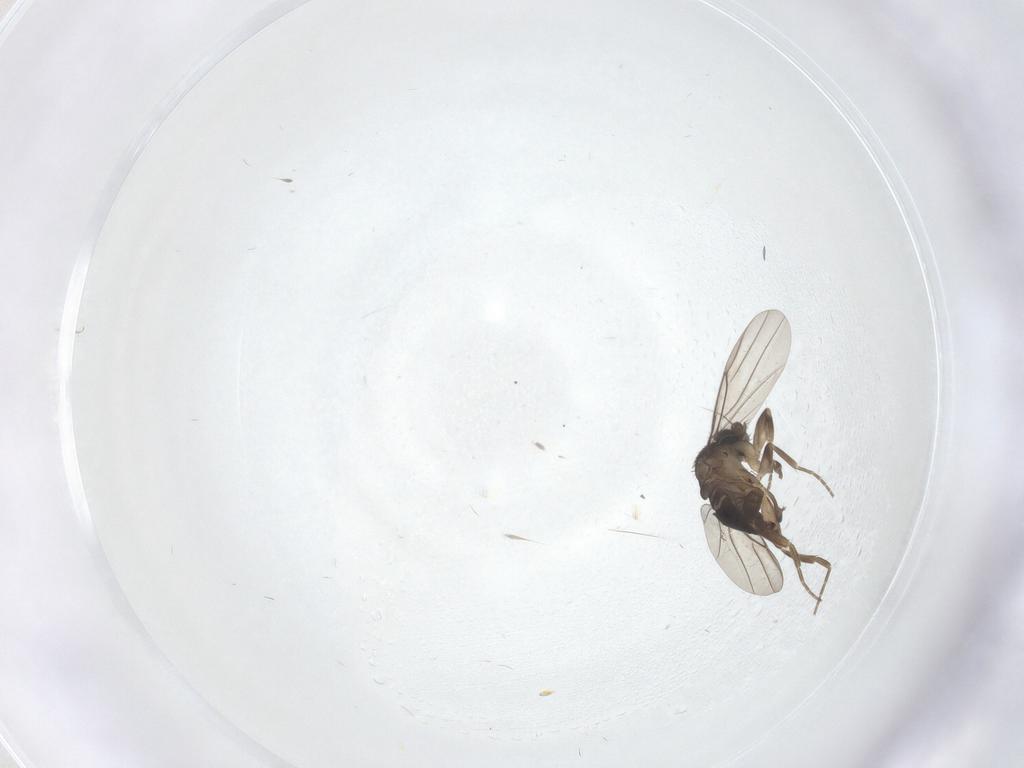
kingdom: Animalia
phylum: Arthropoda
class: Insecta
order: Diptera
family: Phoridae
